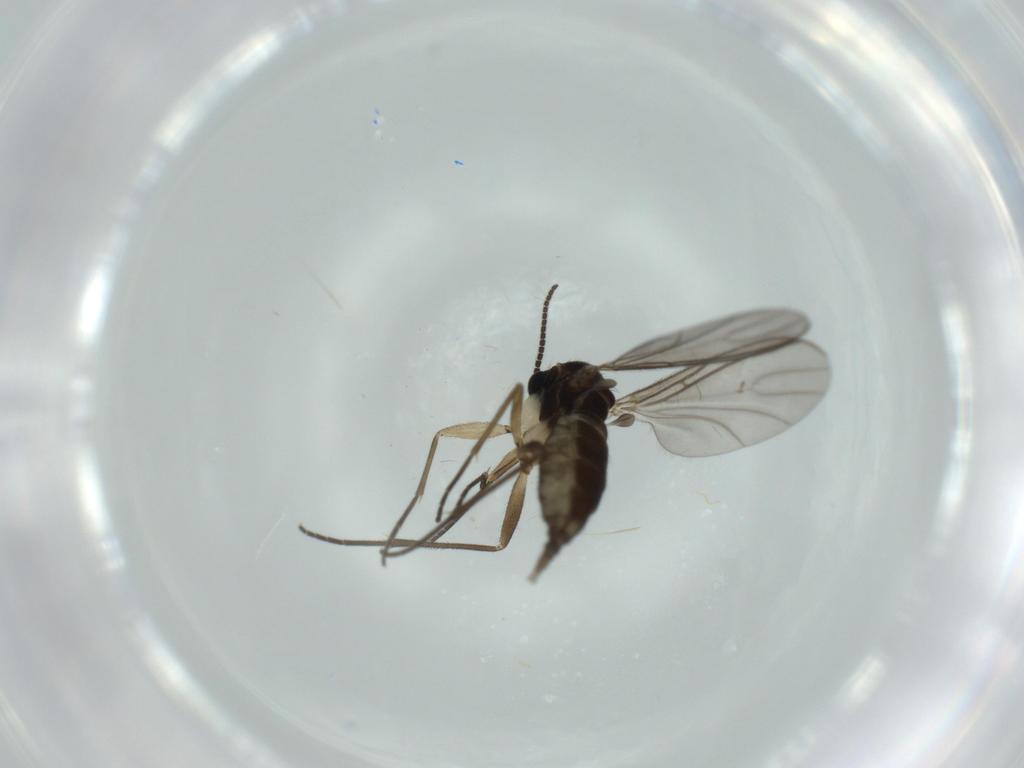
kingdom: Animalia
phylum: Arthropoda
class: Insecta
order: Diptera
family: Sciaridae
